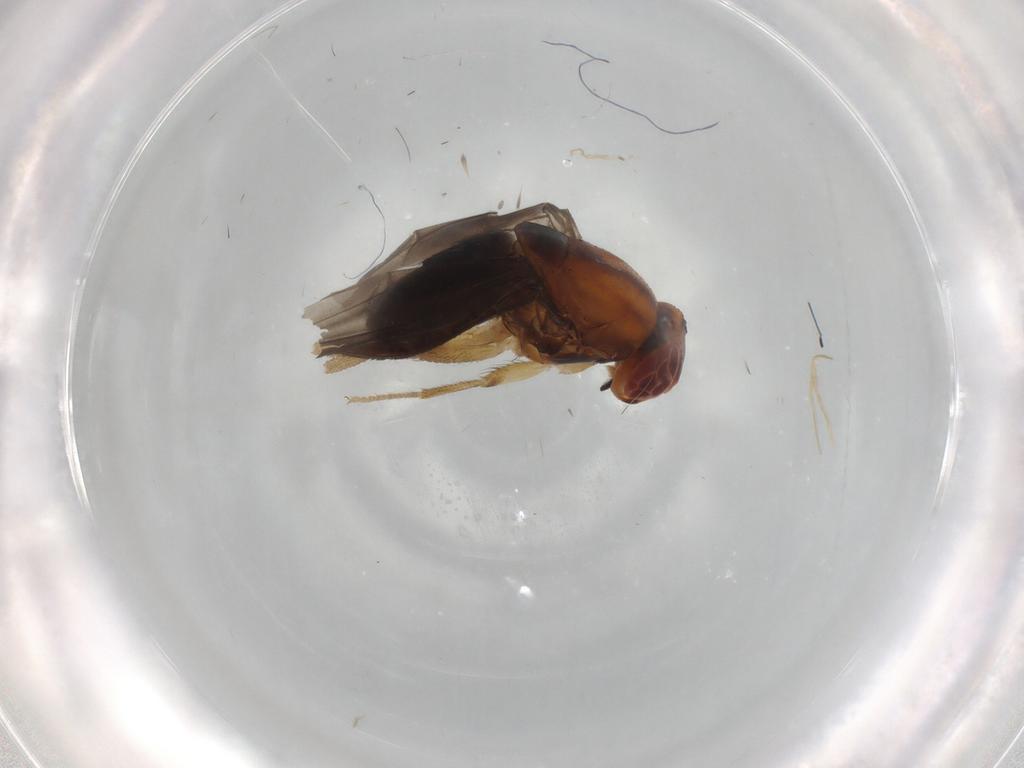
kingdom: Animalia
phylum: Arthropoda
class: Insecta
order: Diptera
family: Drosophilidae
